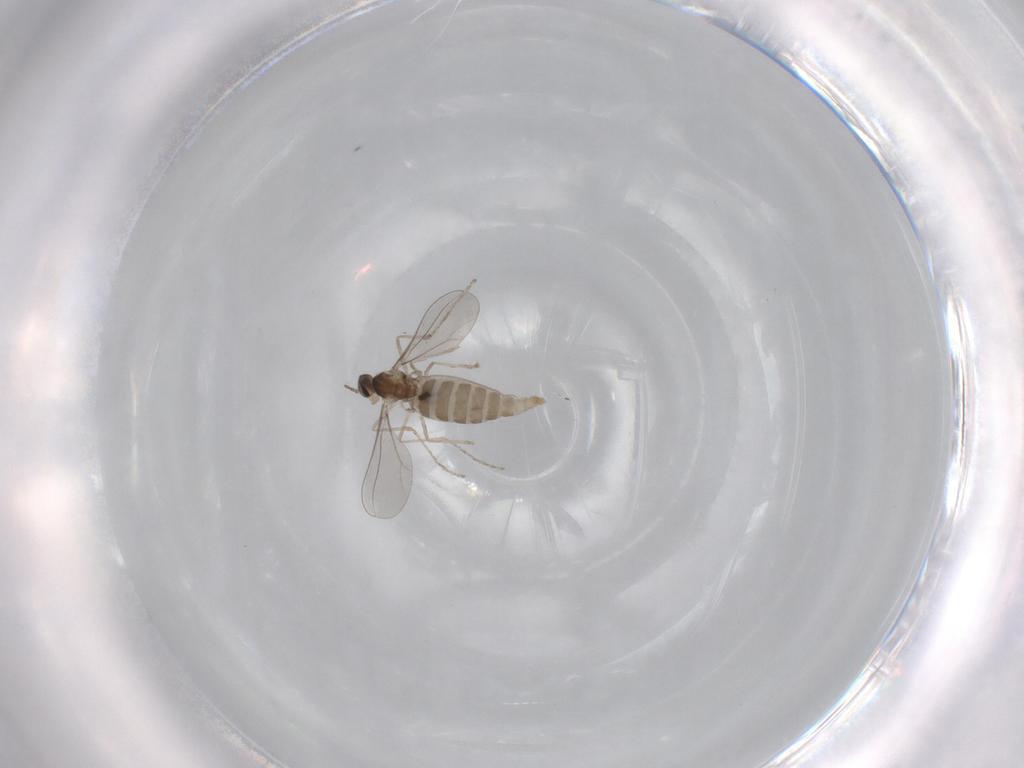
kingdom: Animalia
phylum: Arthropoda
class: Insecta
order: Diptera
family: Ceratopogonidae
